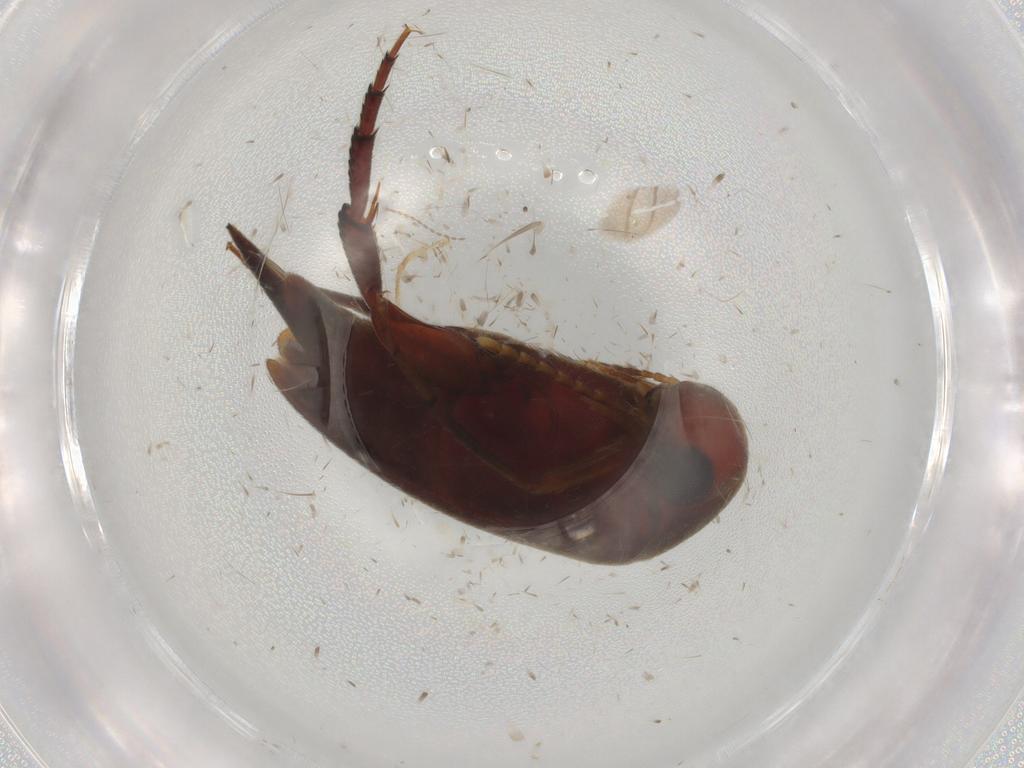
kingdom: Animalia
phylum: Arthropoda
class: Insecta
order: Coleoptera
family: Mordellidae
